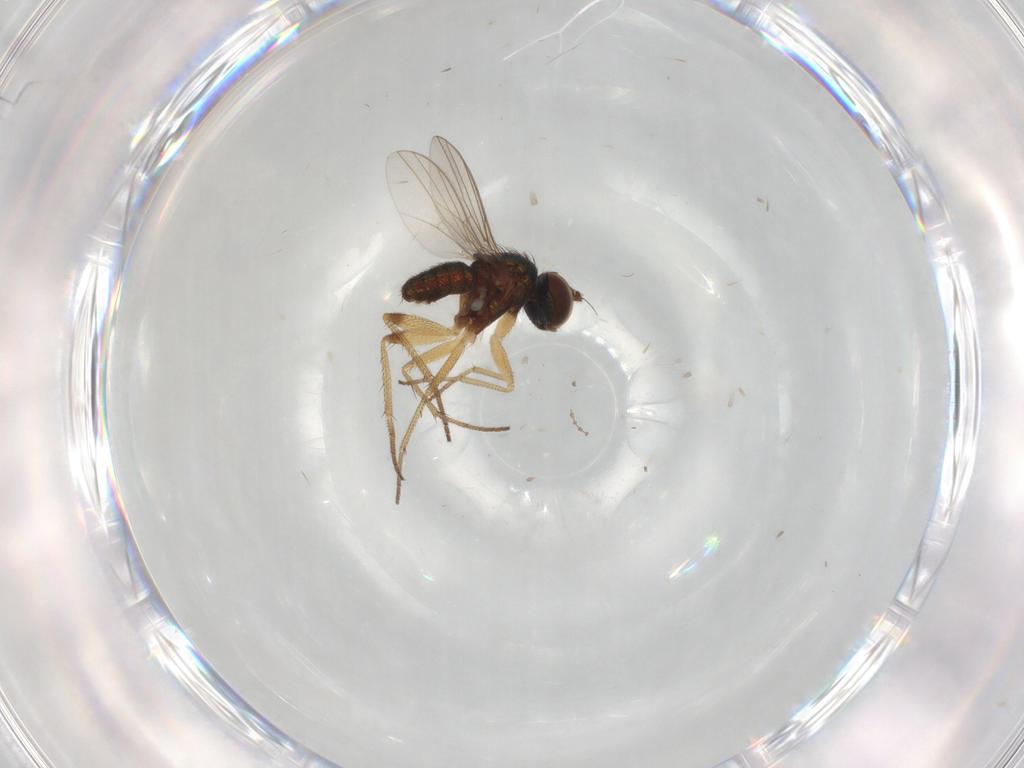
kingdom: Animalia
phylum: Arthropoda
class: Insecta
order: Diptera
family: Cecidomyiidae
